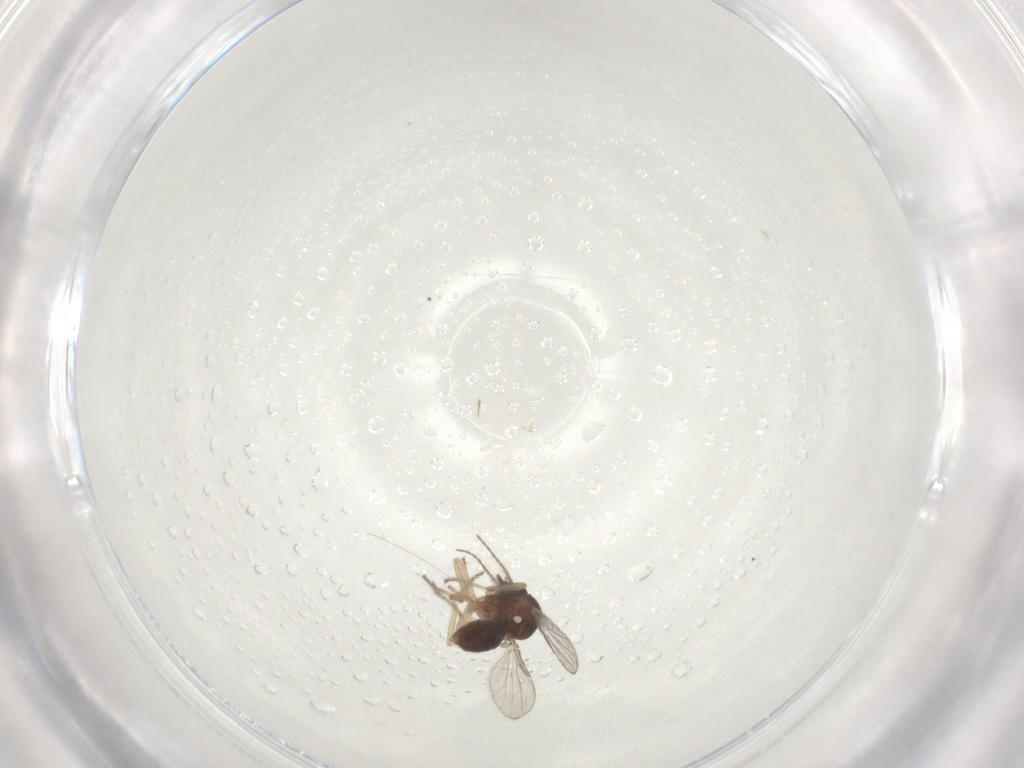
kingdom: Animalia
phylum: Arthropoda
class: Insecta
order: Diptera
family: Ceratopogonidae
